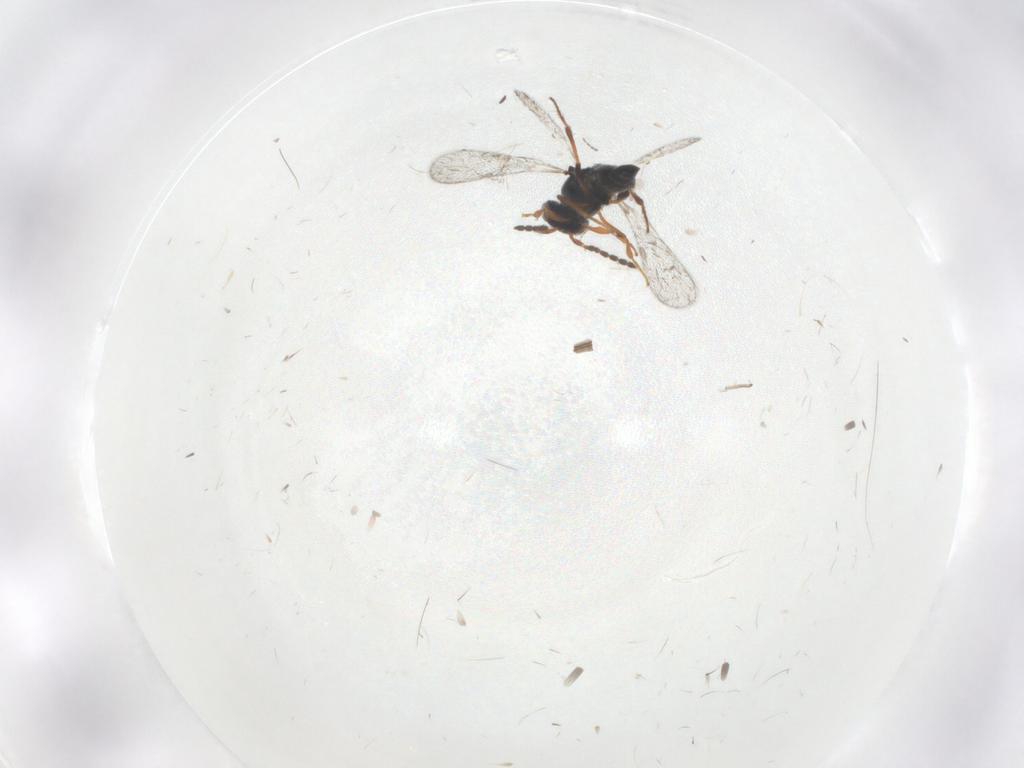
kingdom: Animalia
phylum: Arthropoda
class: Insecta
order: Hemiptera
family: Cixiidae
